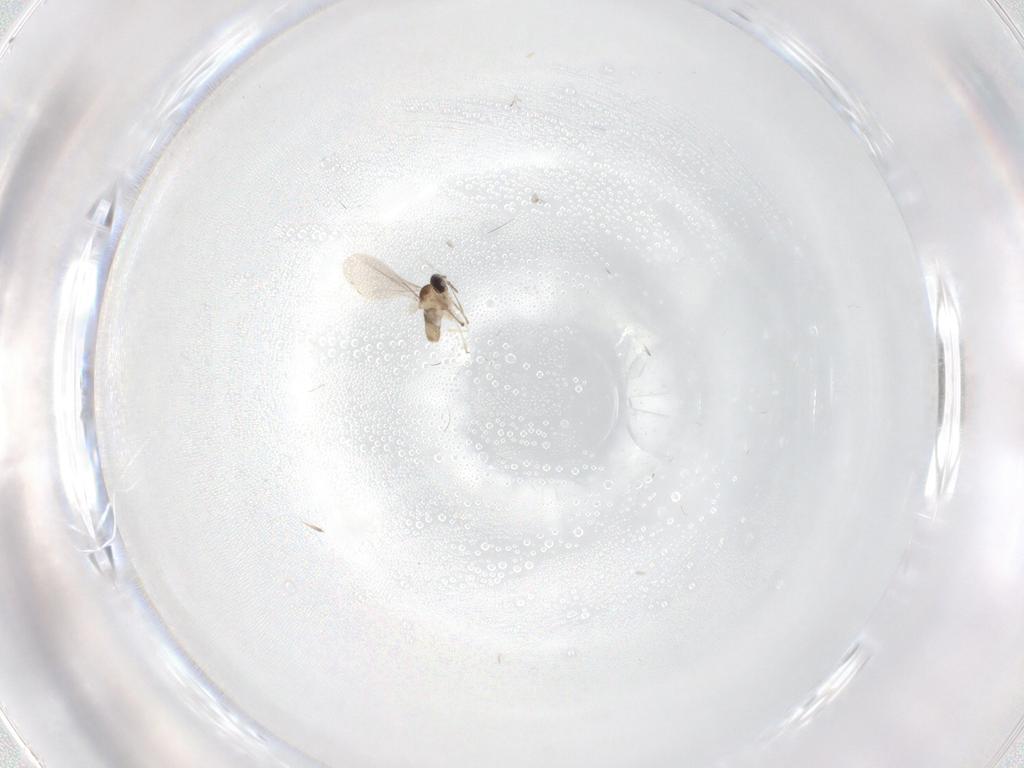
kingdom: Animalia
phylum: Arthropoda
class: Insecta
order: Diptera
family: Cecidomyiidae
